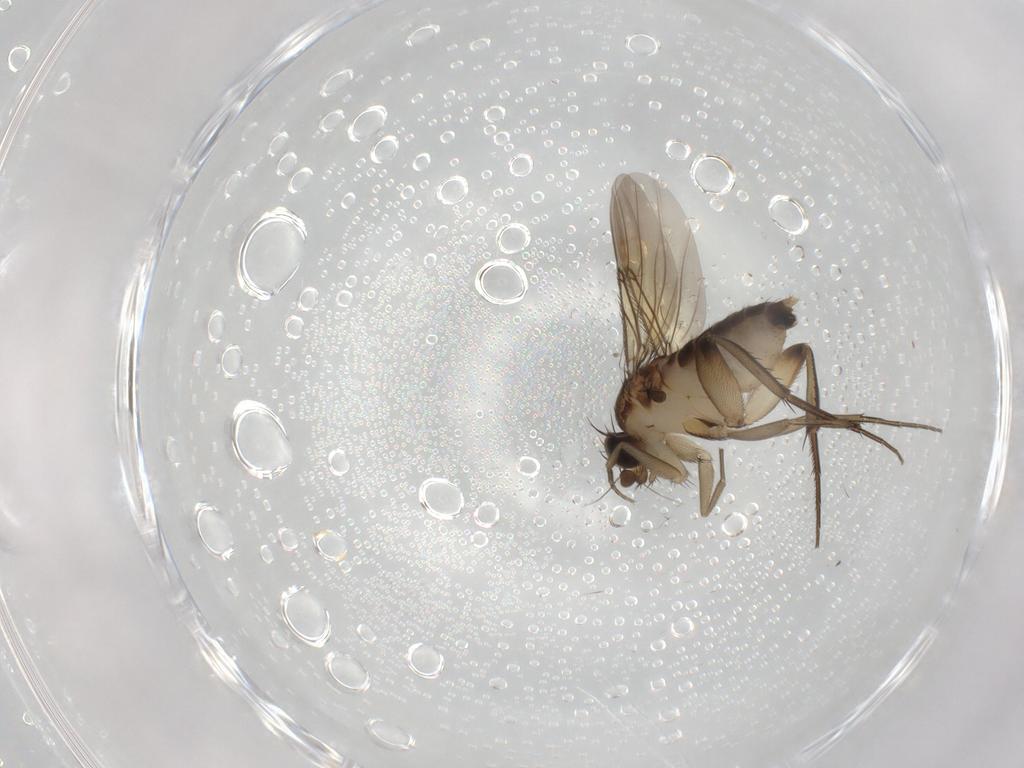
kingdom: Animalia
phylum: Arthropoda
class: Insecta
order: Diptera
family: Phoridae
